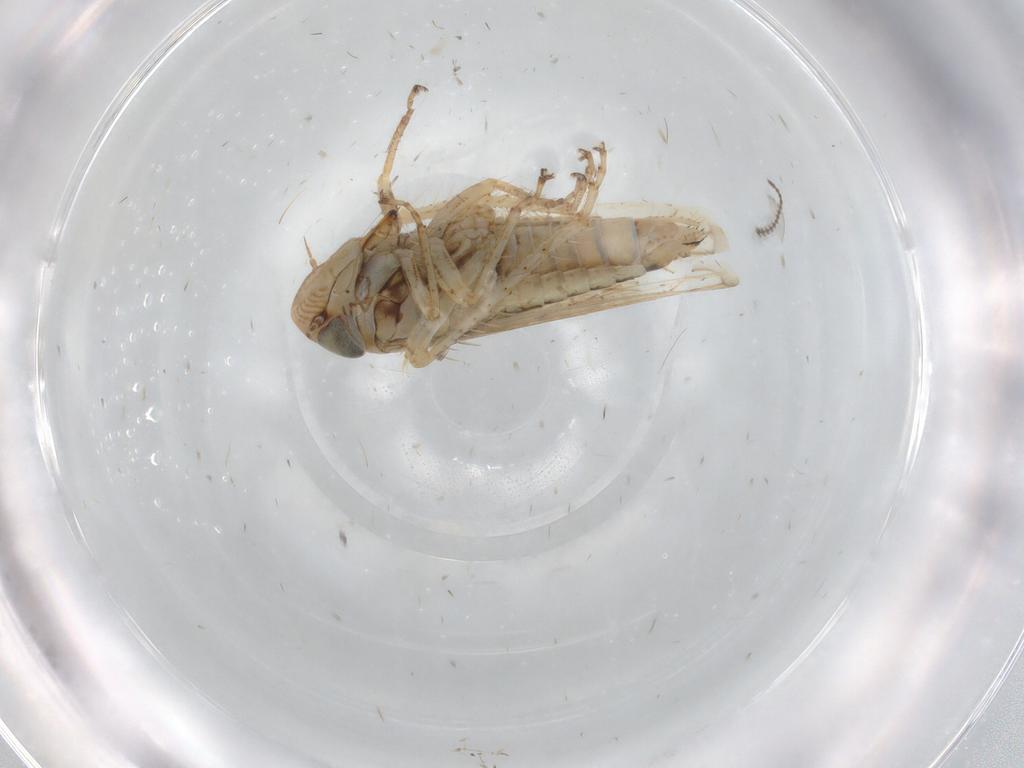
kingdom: Animalia
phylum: Arthropoda
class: Insecta
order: Hemiptera
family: Cicadellidae
